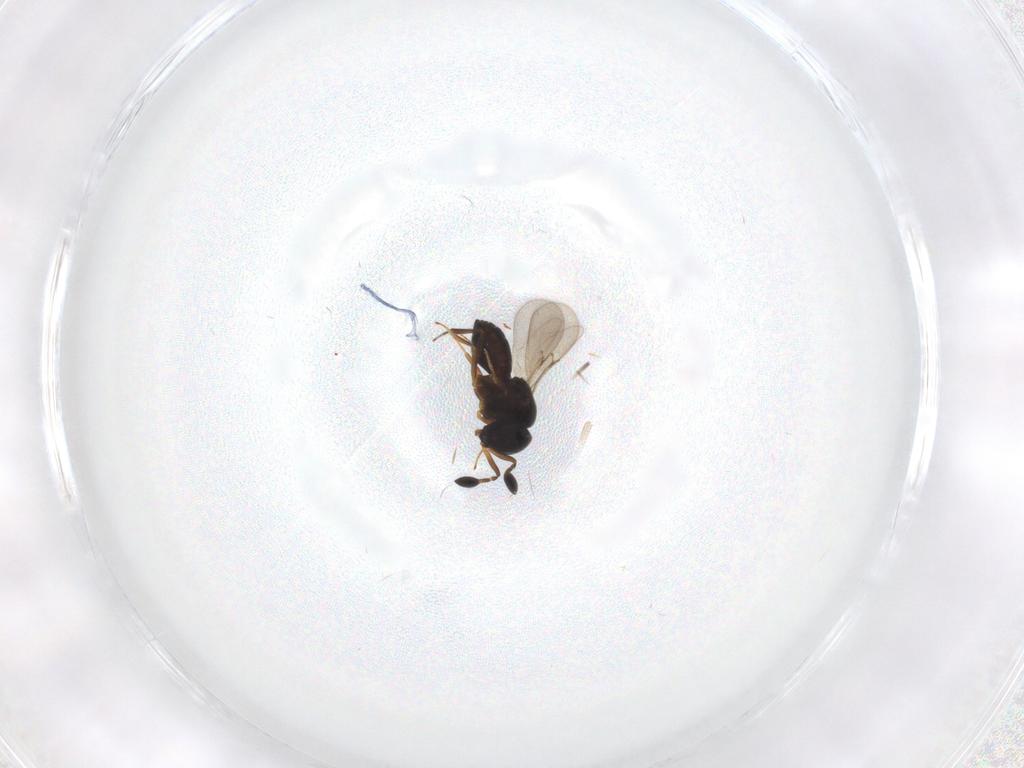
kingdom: Animalia
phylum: Arthropoda
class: Insecta
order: Hymenoptera
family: Scelionidae
